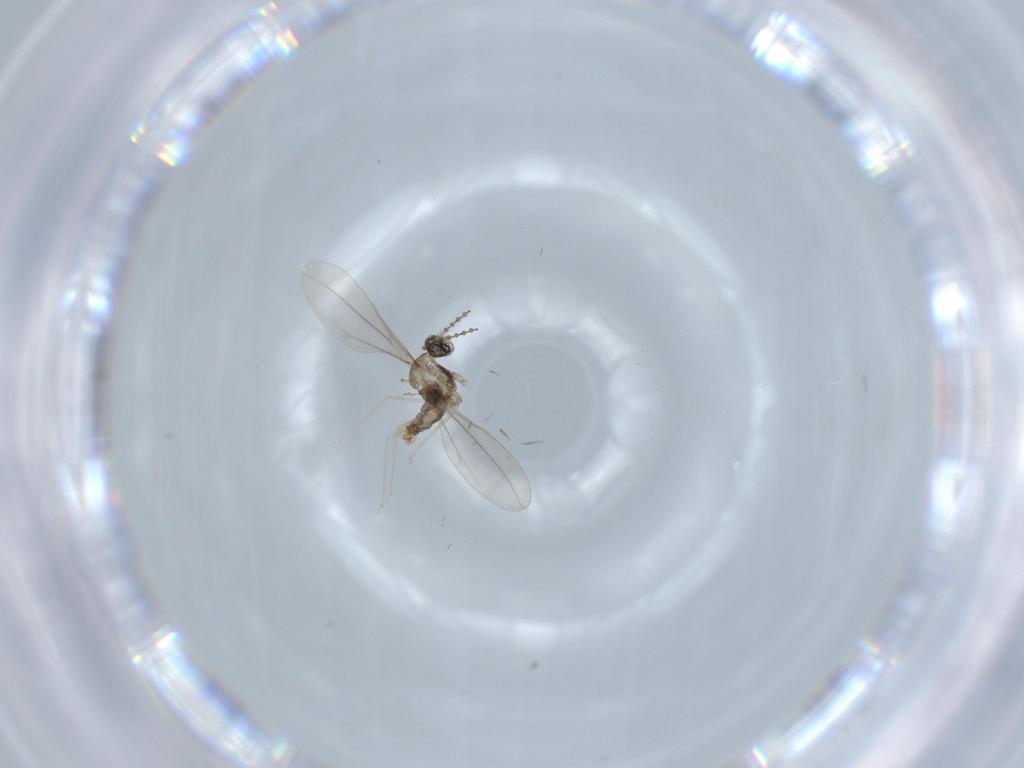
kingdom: Animalia
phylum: Arthropoda
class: Insecta
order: Diptera
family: Cecidomyiidae
